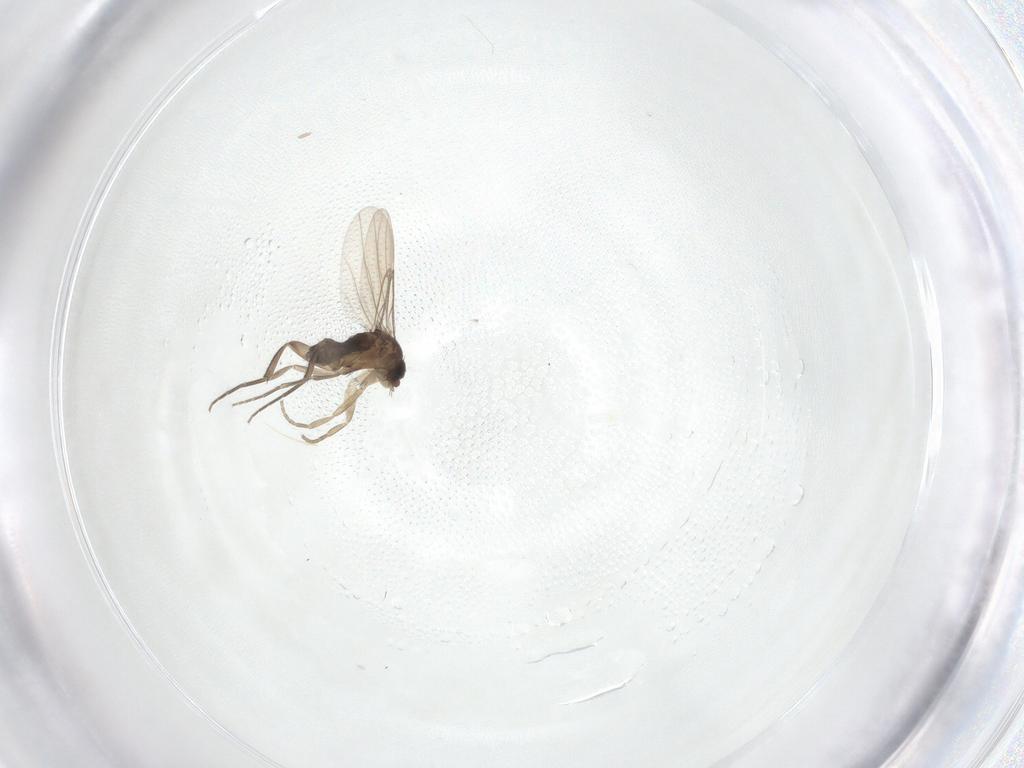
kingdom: Animalia
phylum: Arthropoda
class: Insecta
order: Diptera
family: Phoridae
